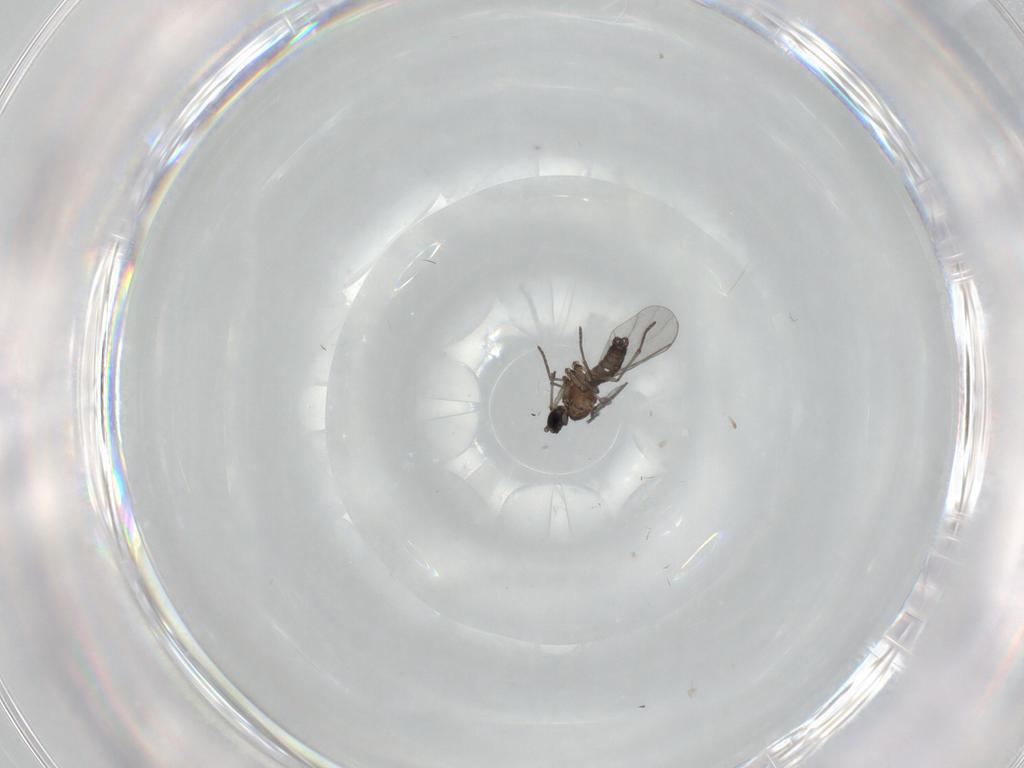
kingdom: Animalia
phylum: Arthropoda
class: Insecta
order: Diptera
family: Sciaridae
